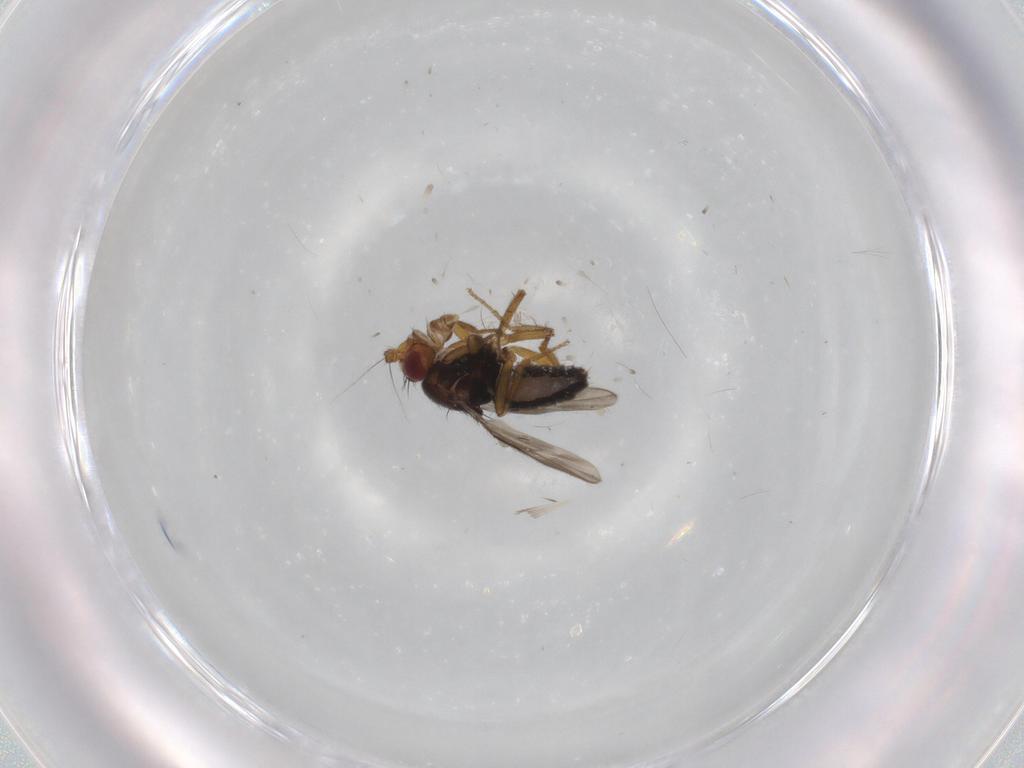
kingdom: Animalia
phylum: Arthropoda
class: Insecta
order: Diptera
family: Sphaeroceridae
